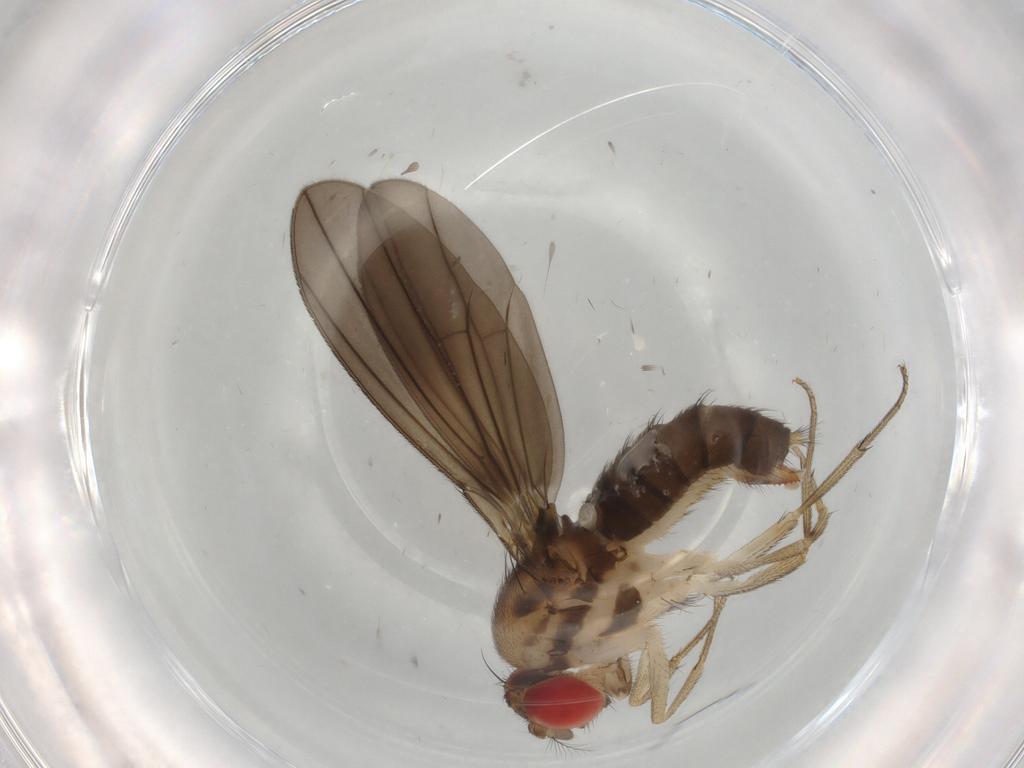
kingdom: Animalia
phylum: Arthropoda
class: Insecta
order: Diptera
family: Drosophilidae
